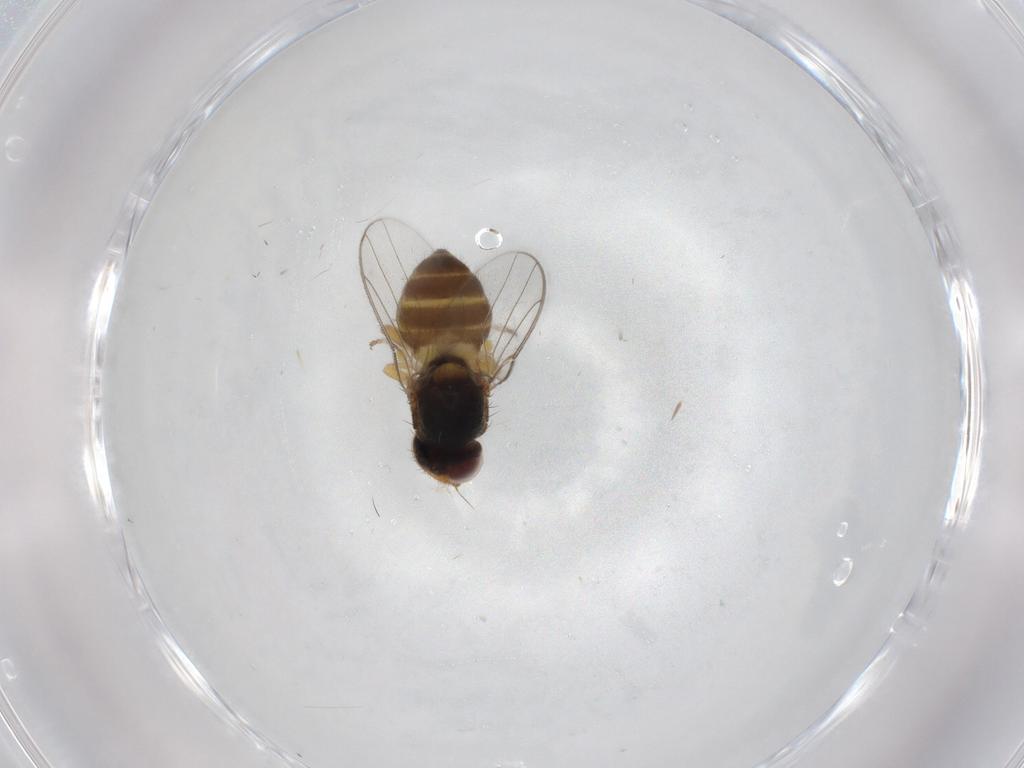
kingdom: Animalia
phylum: Arthropoda
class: Insecta
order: Diptera
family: Chloropidae
